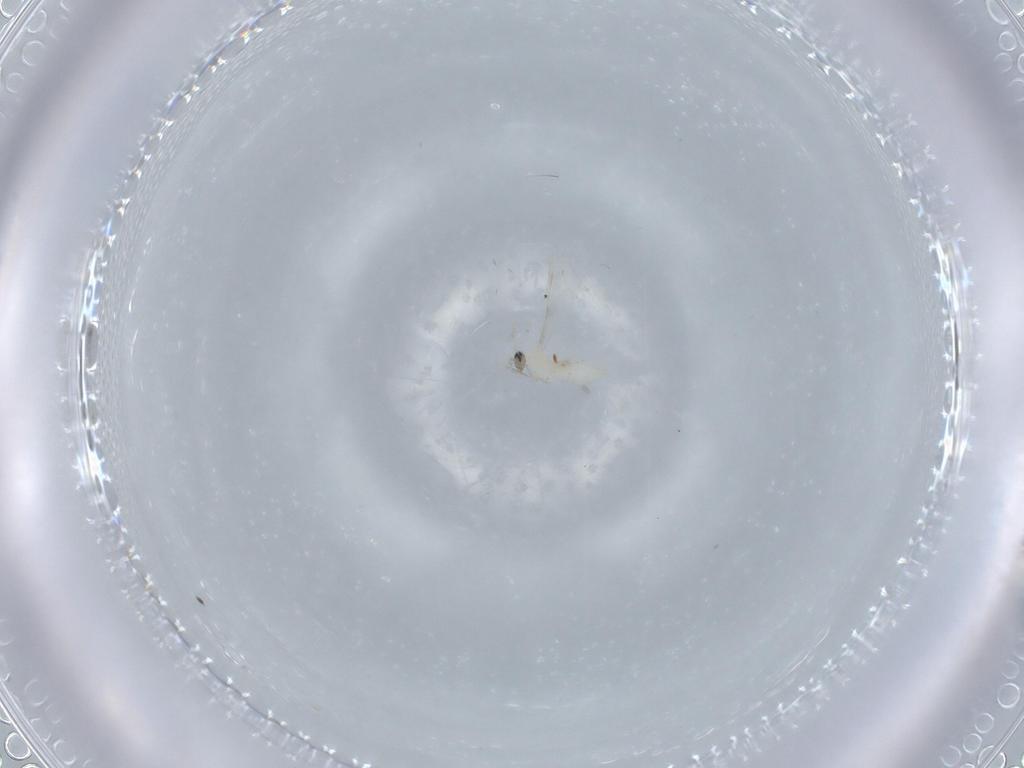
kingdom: Animalia
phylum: Arthropoda
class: Insecta
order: Diptera
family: Cecidomyiidae
